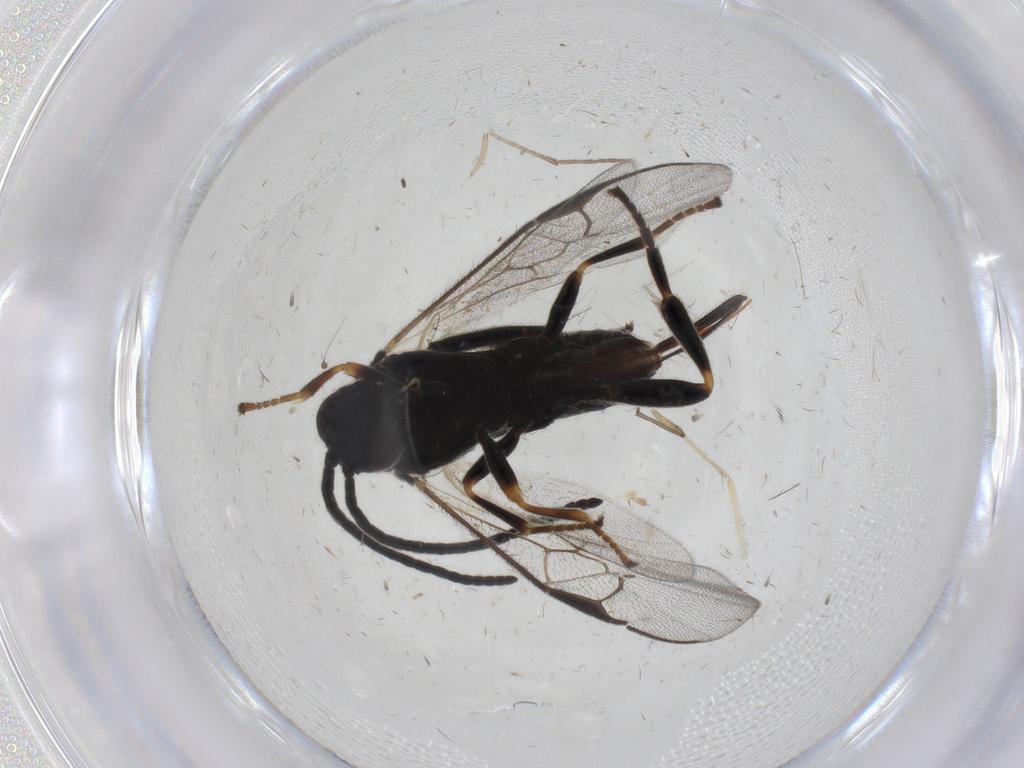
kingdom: Animalia
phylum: Arthropoda
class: Insecta
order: Hymenoptera
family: Braconidae
